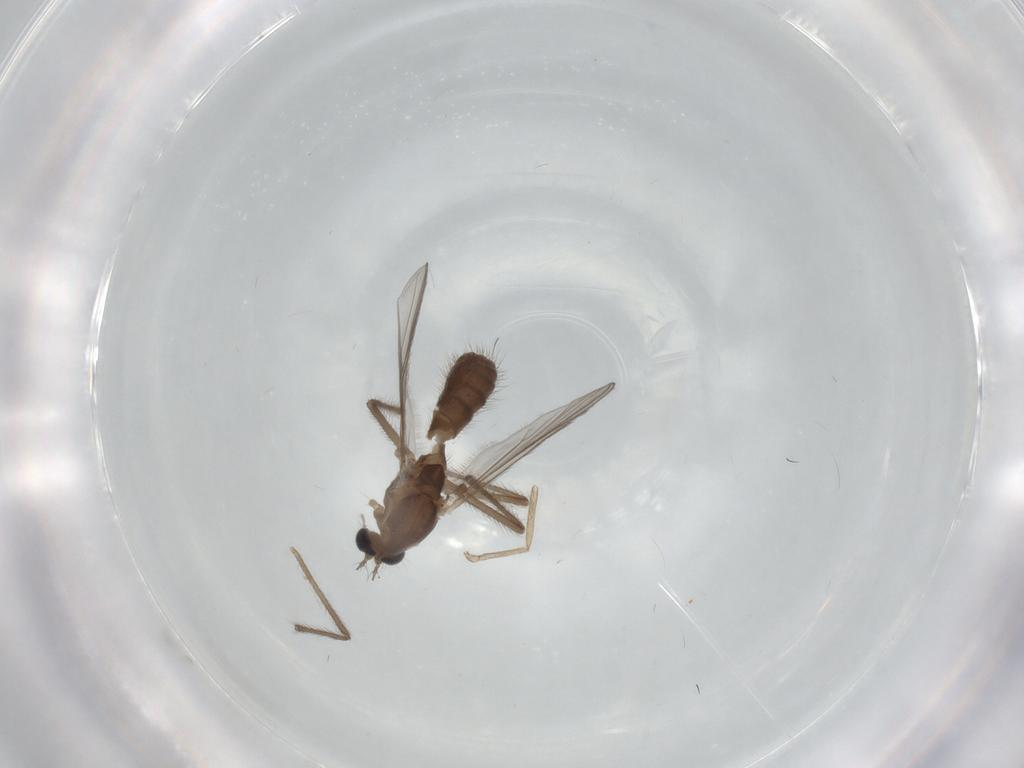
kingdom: Animalia
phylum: Arthropoda
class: Insecta
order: Diptera
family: Chironomidae
